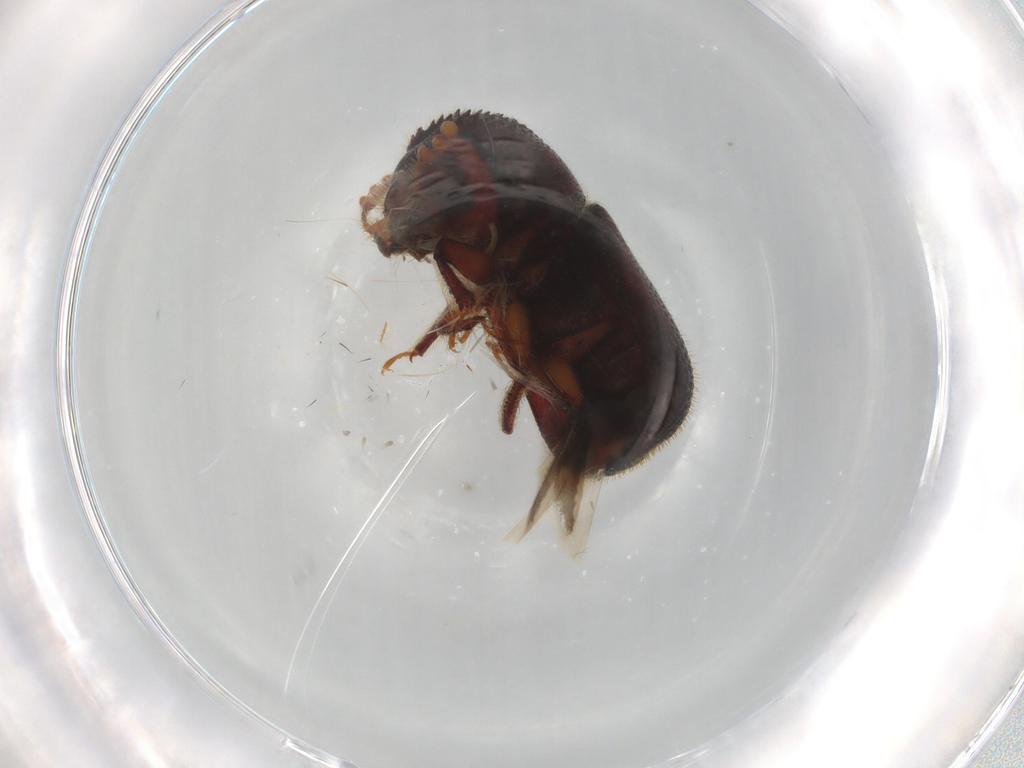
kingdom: Animalia
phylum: Arthropoda
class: Insecta
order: Coleoptera
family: Bostrichidae
